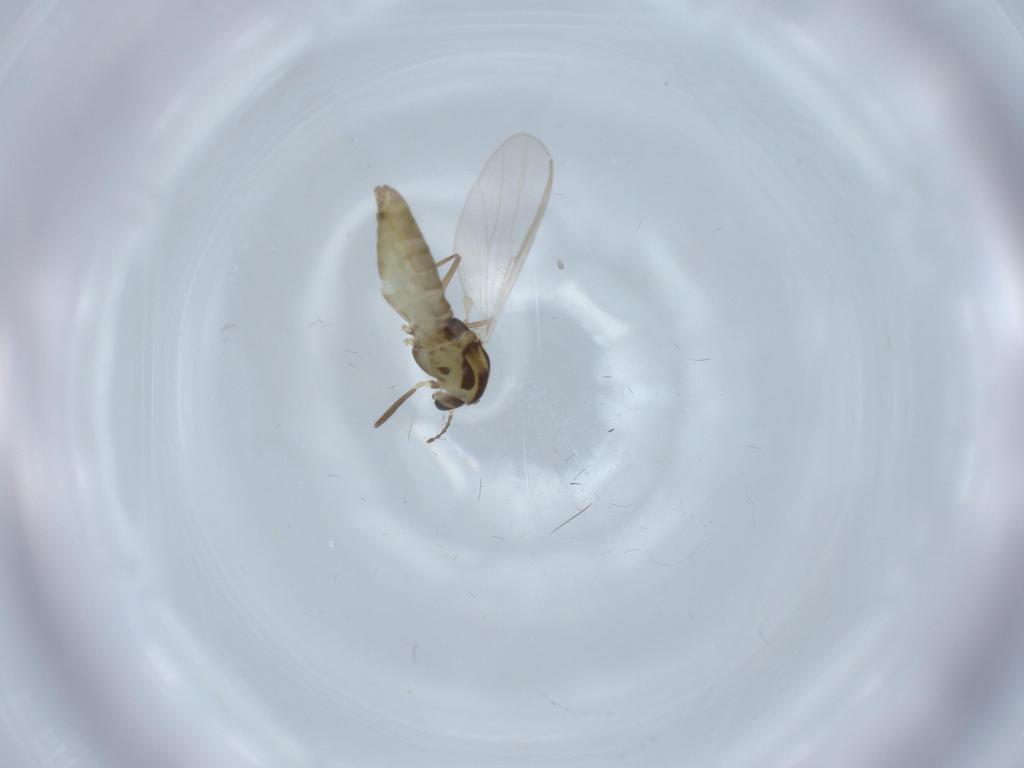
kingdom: Animalia
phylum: Arthropoda
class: Insecta
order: Diptera
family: Chironomidae
